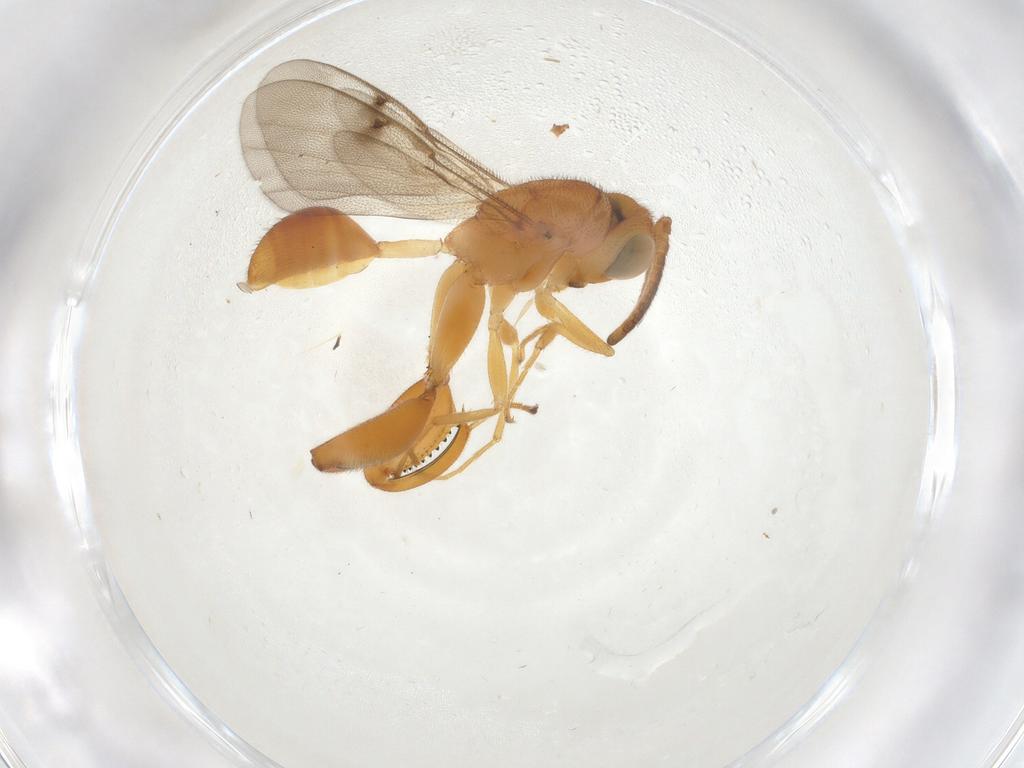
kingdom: Animalia
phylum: Arthropoda
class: Insecta
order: Hymenoptera
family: Chalcididae
